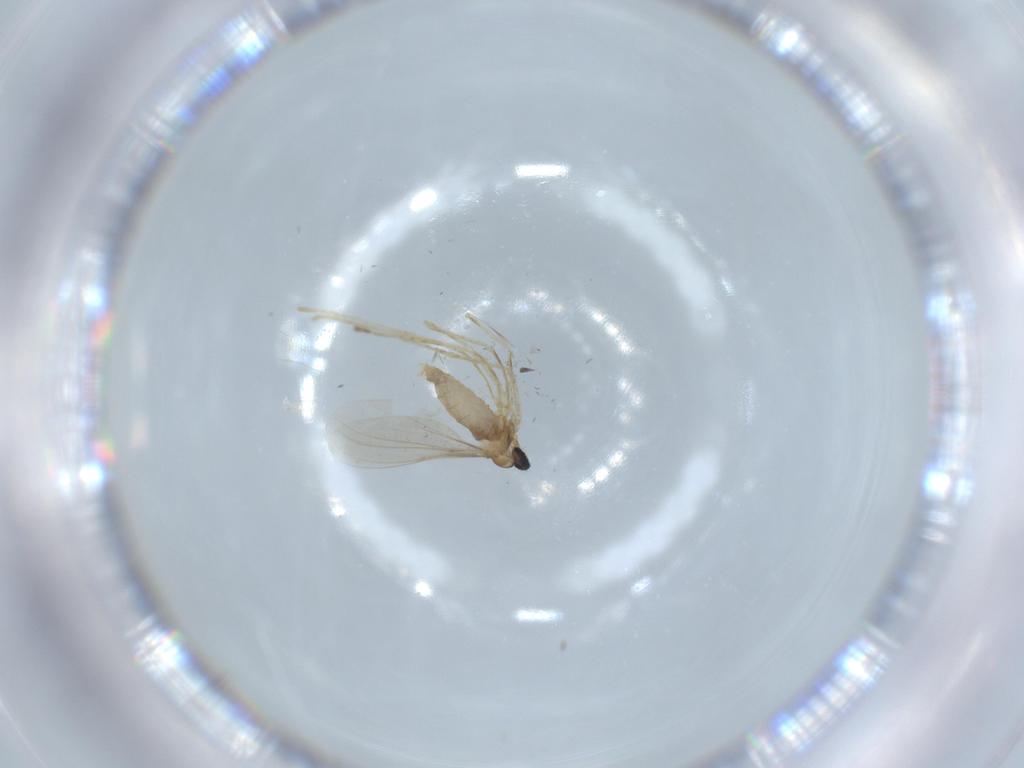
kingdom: Animalia
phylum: Arthropoda
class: Insecta
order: Diptera
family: Cecidomyiidae
